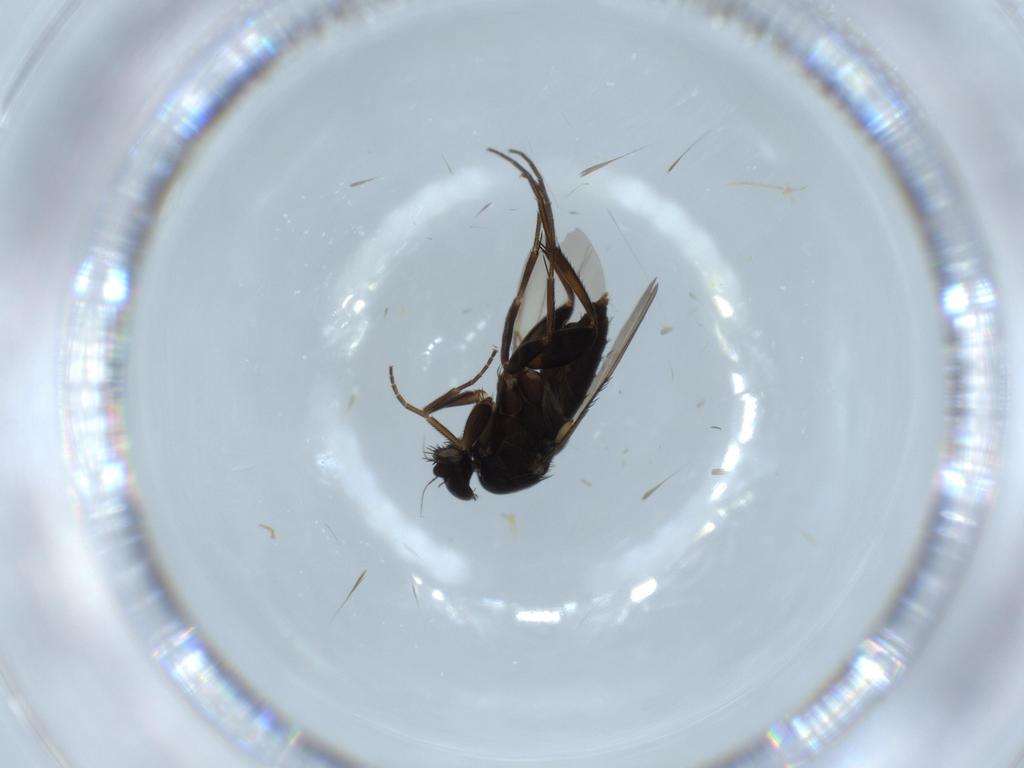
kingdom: Animalia
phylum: Arthropoda
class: Insecta
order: Diptera
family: Phoridae
